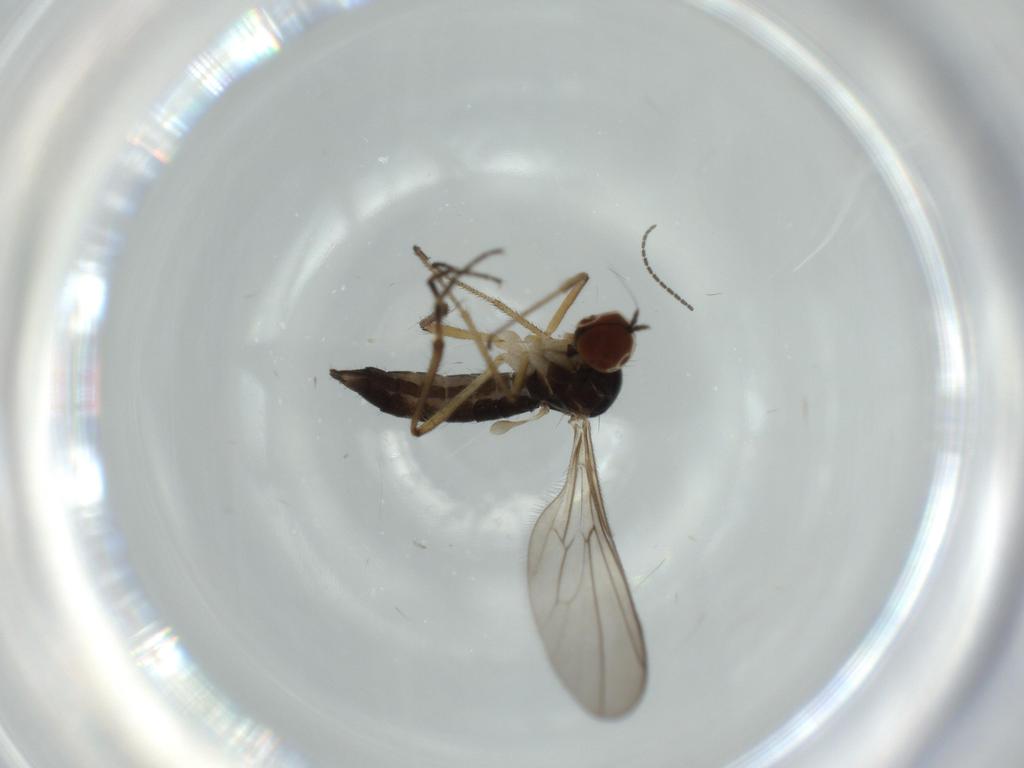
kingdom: Animalia
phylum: Arthropoda
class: Insecta
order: Diptera
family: Hybotidae
